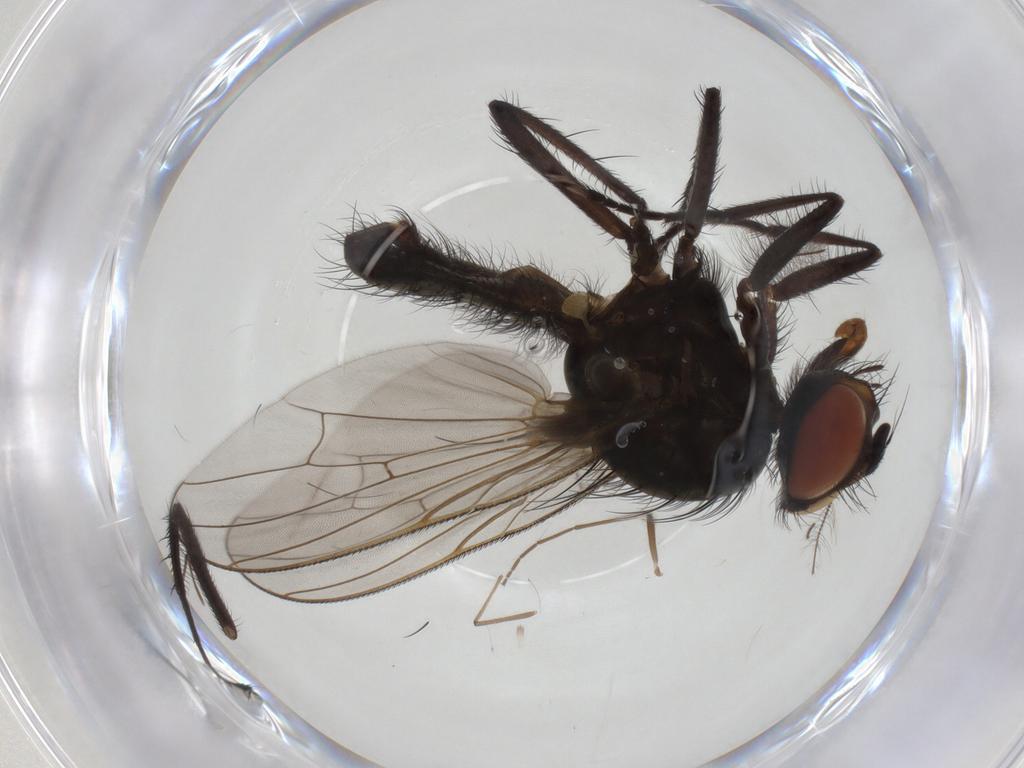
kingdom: Animalia
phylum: Arthropoda
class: Insecta
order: Diptera
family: Anthomyiidae
